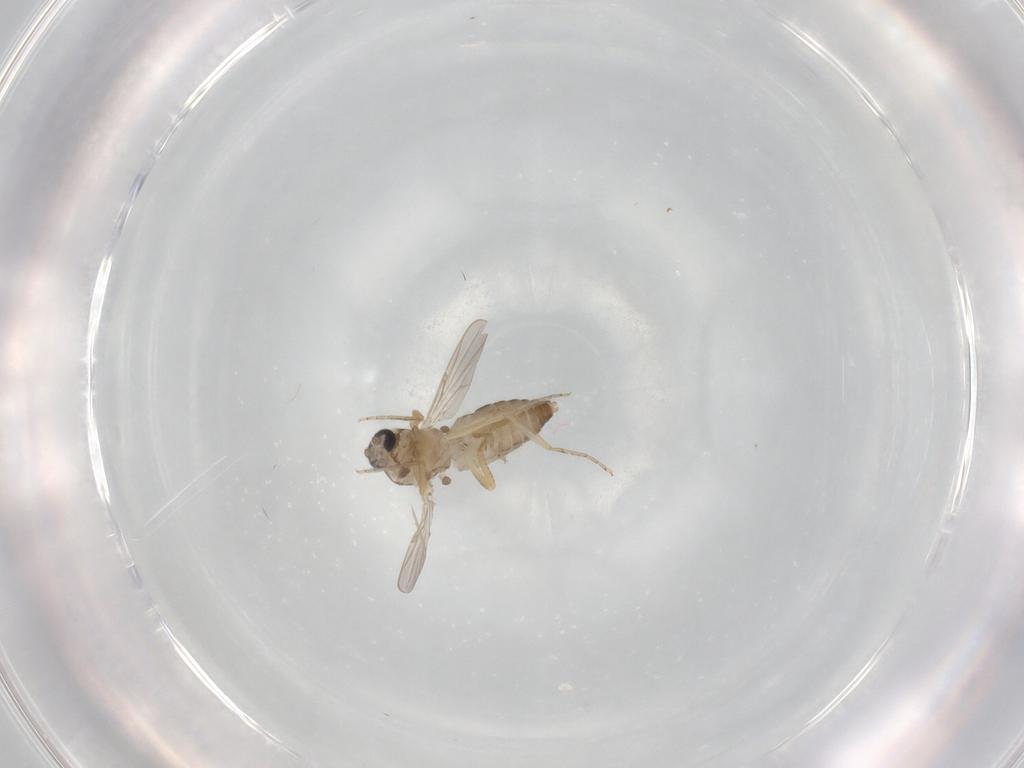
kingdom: Animalia
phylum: Arthropoda
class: Insecta
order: Diptera
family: Ceratopogonidae
